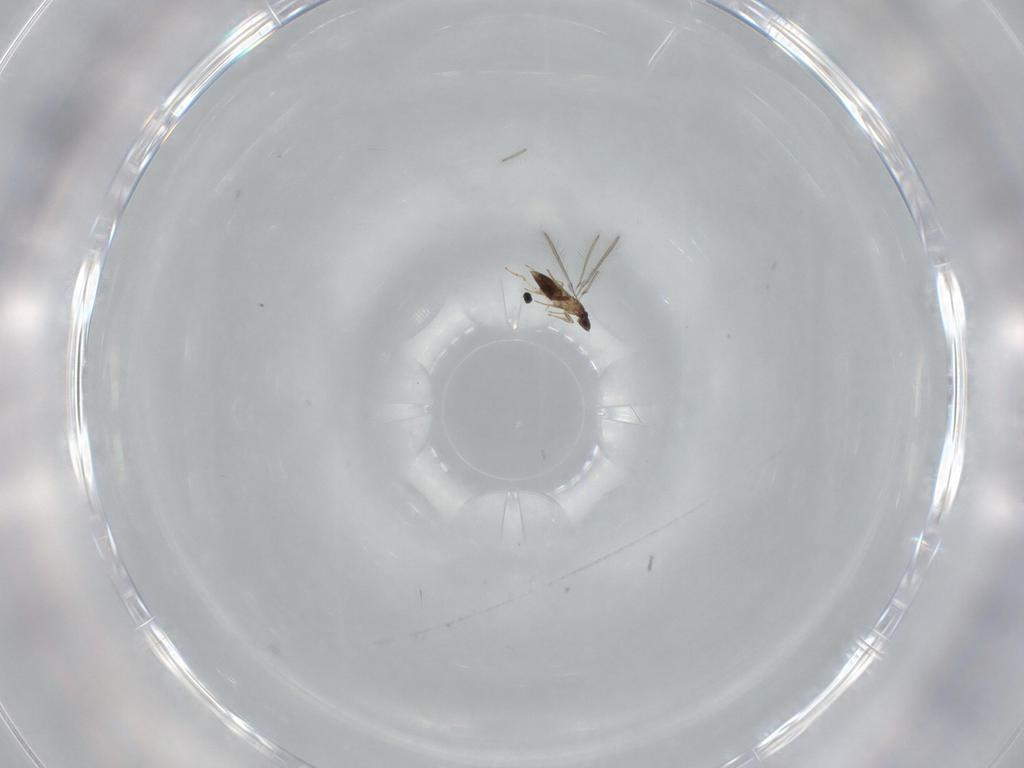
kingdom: Animalia
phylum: Arthropoda
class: Insecta
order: Hymenoptera
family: Mymaridae
